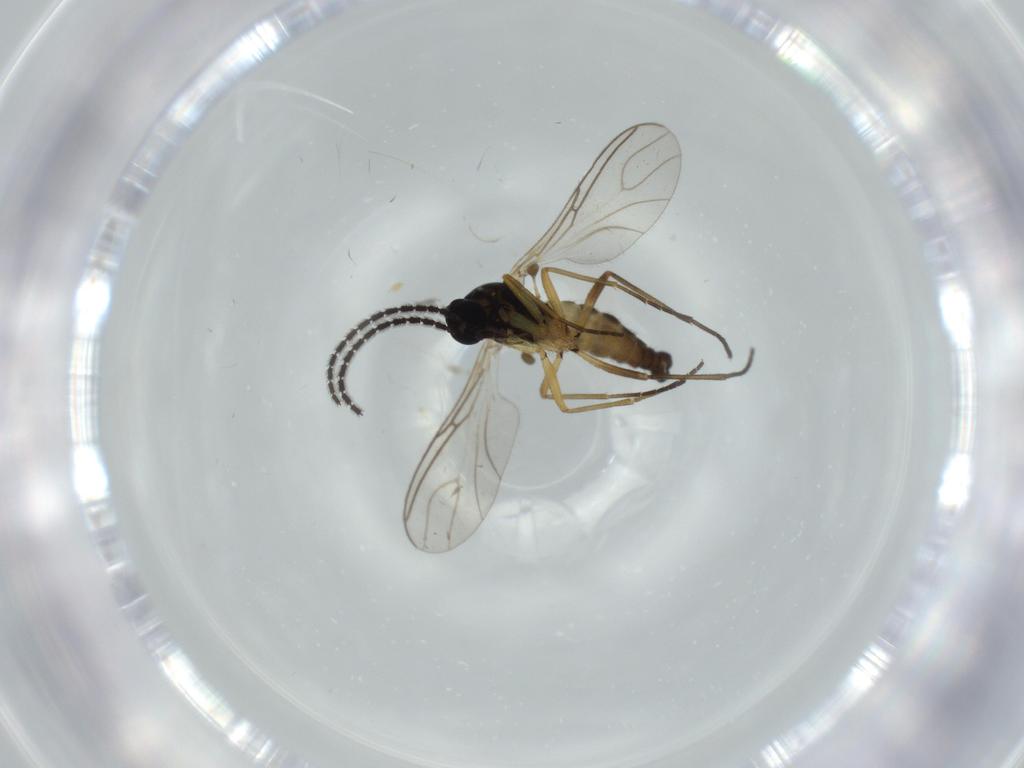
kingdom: Animalia
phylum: Arthropoda
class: Insecta
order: Diptera
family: Sciaridae
